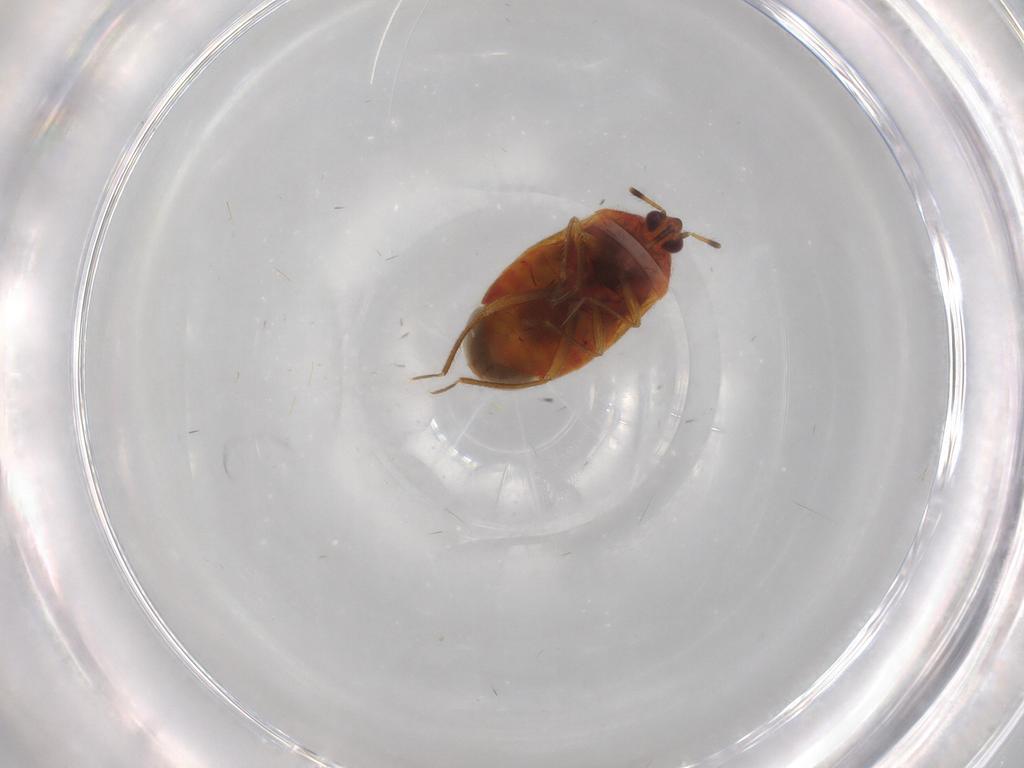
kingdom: Animalia
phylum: Arthropoda
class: Insecta
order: Hemiptera
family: Anthocoridae
